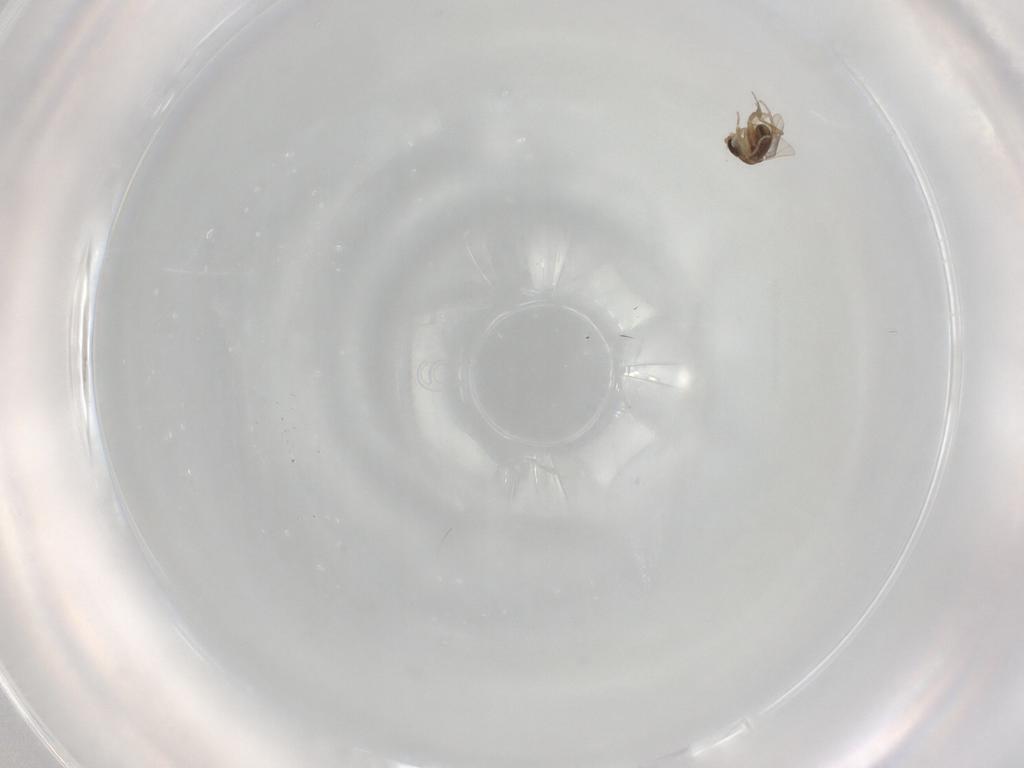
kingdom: Animalia
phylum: Arthropoda
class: Insecta
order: Diptera
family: Phoridae
